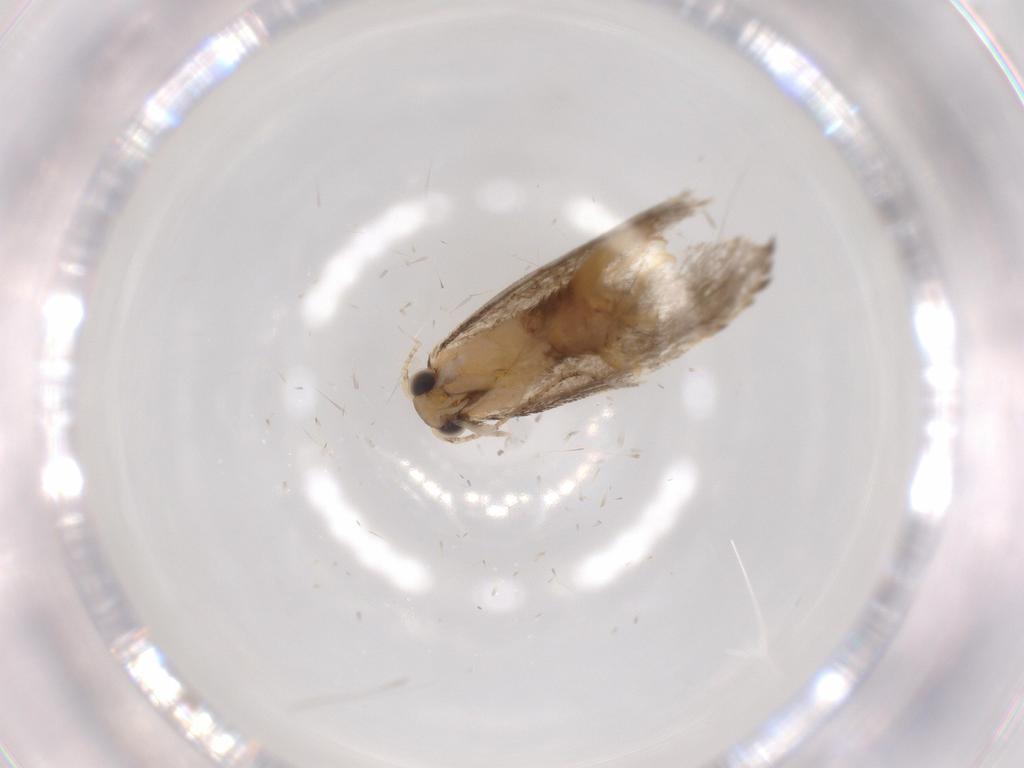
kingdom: Animalia
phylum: Arthropoda
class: Insecta
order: Lepidoptera
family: Tineidae
